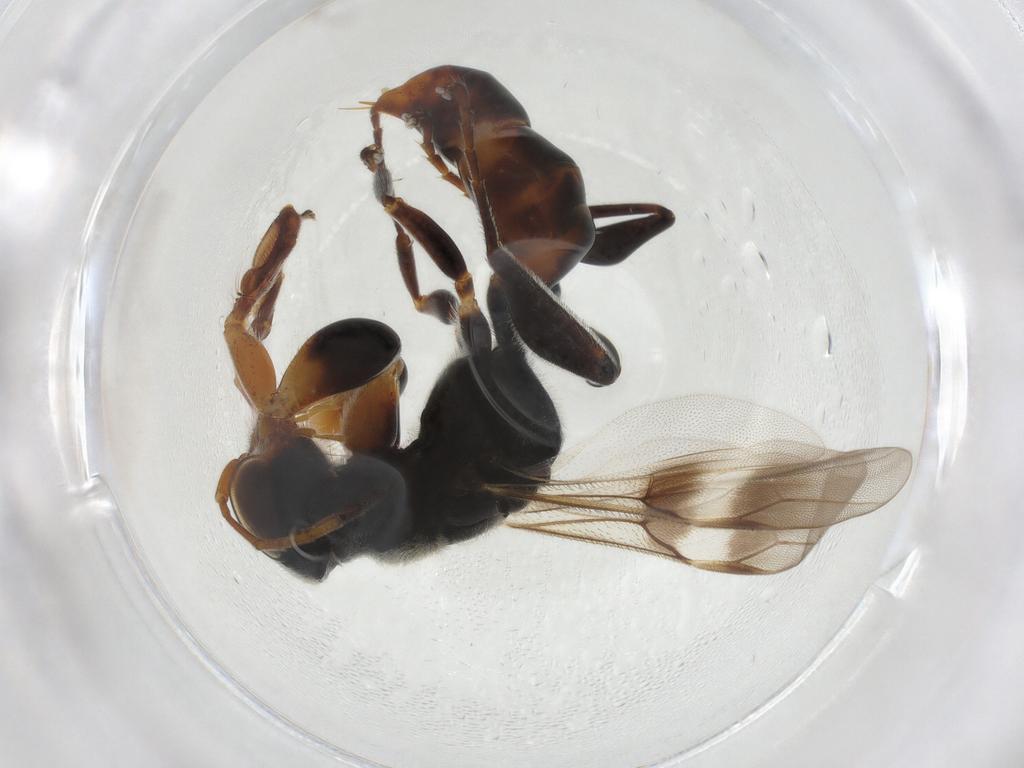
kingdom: Animalia
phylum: Arthropoda
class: Insecta
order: Hymenoptera
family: Dryinidae
